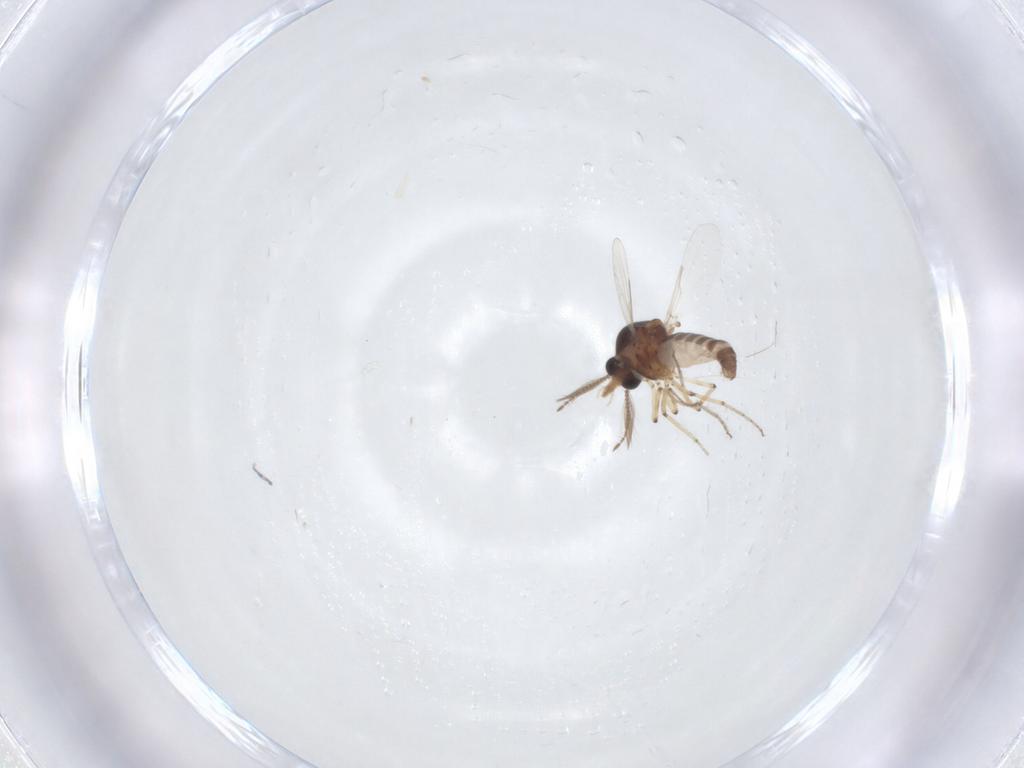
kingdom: Animalia
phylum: Arthropoda
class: Insecta
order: Diptera
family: Ceratopogonidae
